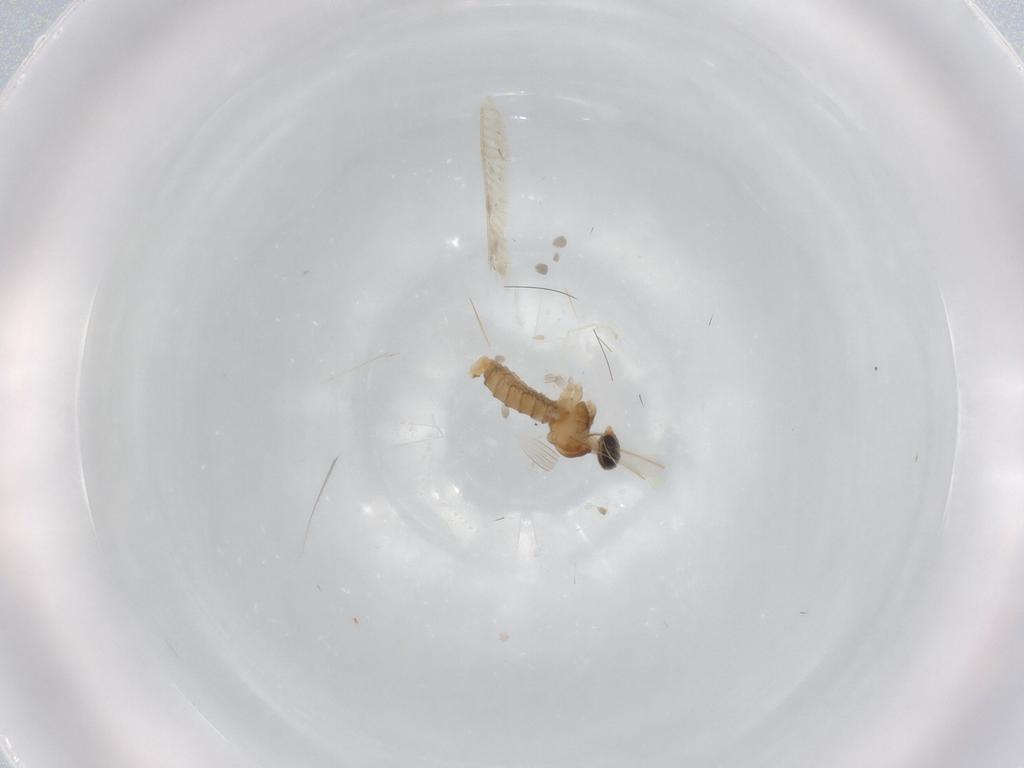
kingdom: Animalia
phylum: Arthropoda
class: Insecta
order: Diptera
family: Cecidomyiidae
